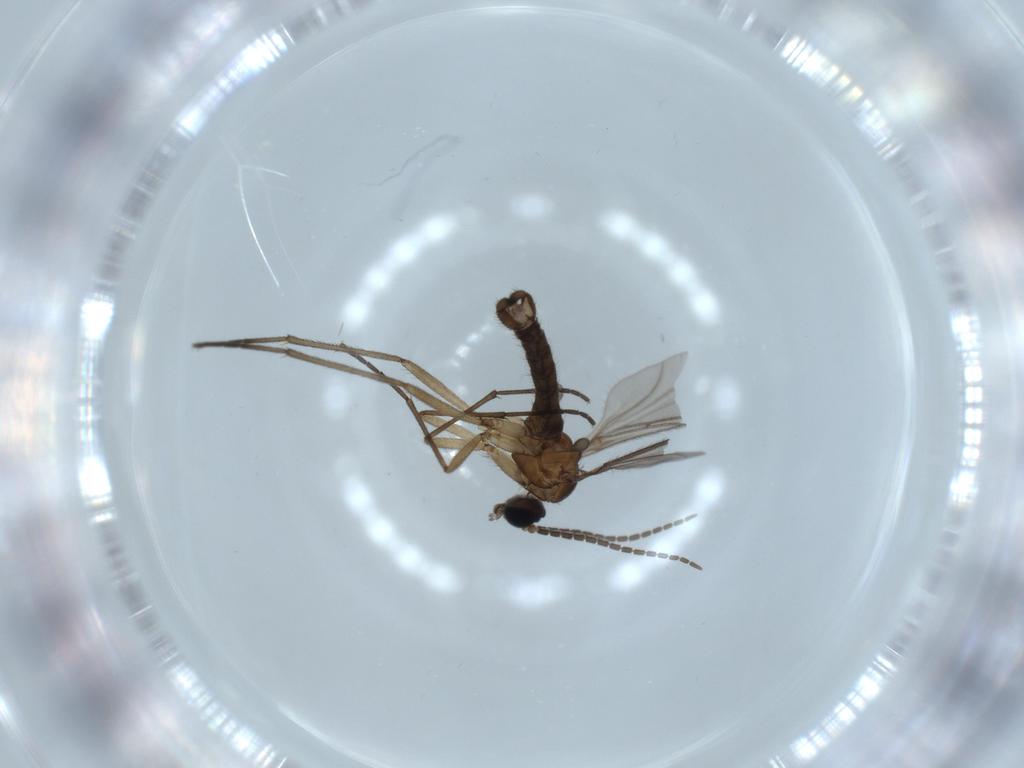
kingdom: Animalia
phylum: Arthropoda
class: Insecta
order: Diptera
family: Sciaridae
